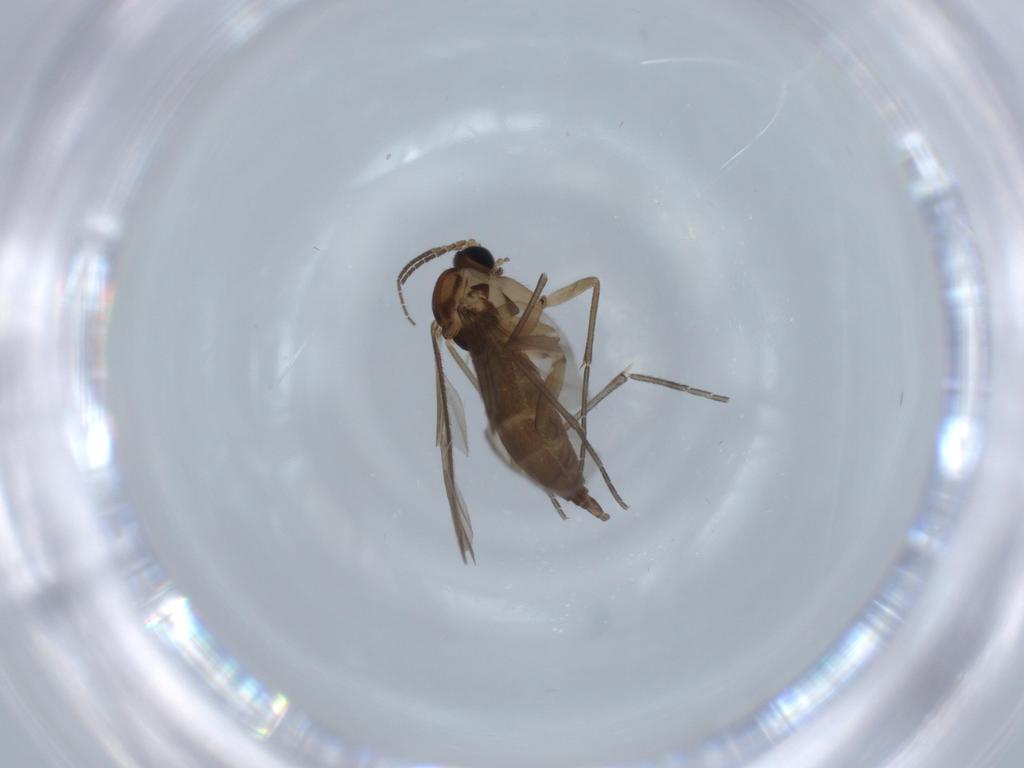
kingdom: Animalia
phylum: Arthropoda
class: Insecta
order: Diptera
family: Sciaridae
